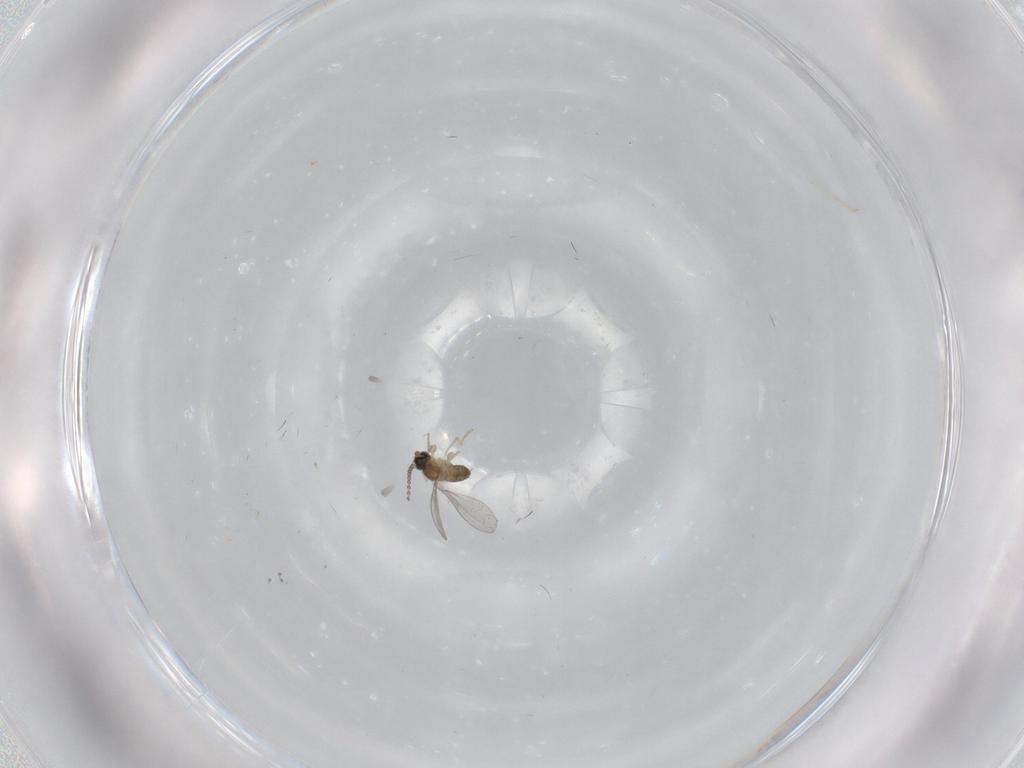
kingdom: Animalia
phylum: Arthropoda
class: Insecta
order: Diptera
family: Cecidomyiidae
